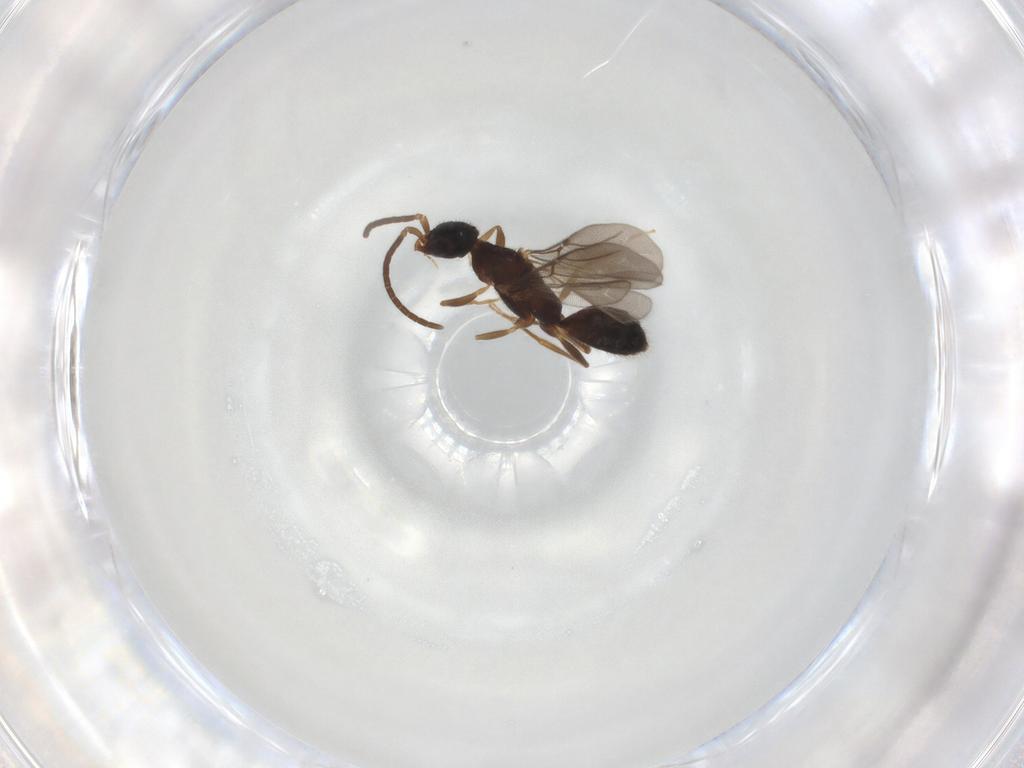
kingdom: Animalia
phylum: Arthropoda
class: Insecta
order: Hymenoptera
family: Bethylidae
